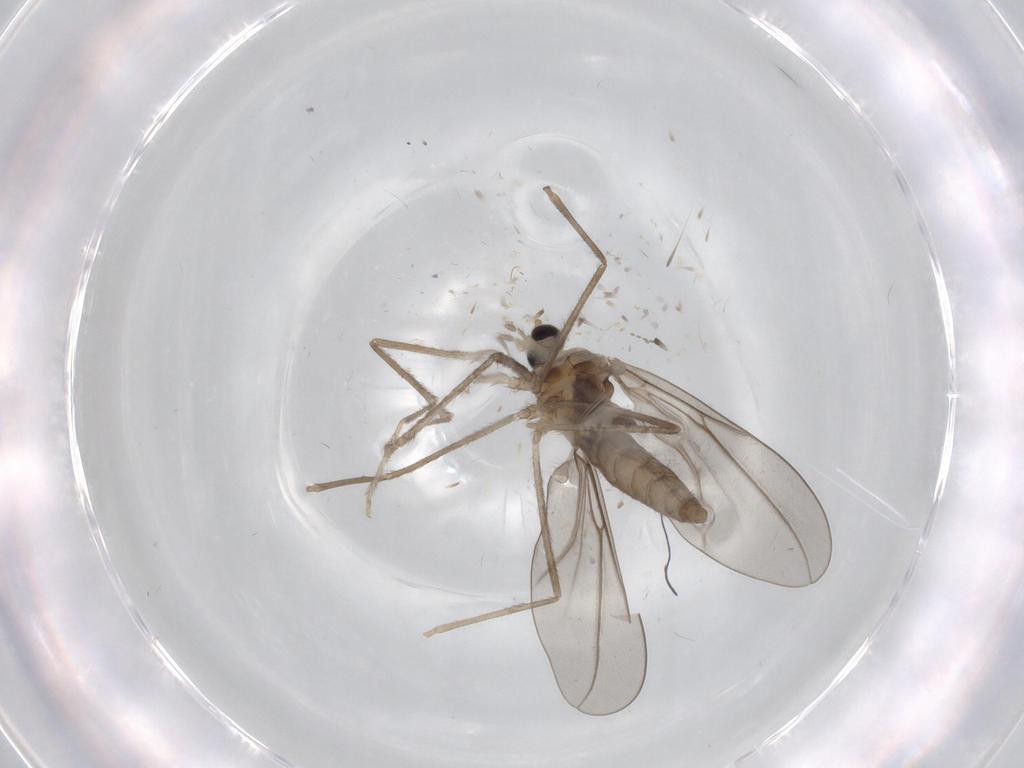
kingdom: Animalia
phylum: Arthropoda
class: Insecta
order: Diptera
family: Cecidomyiidae
